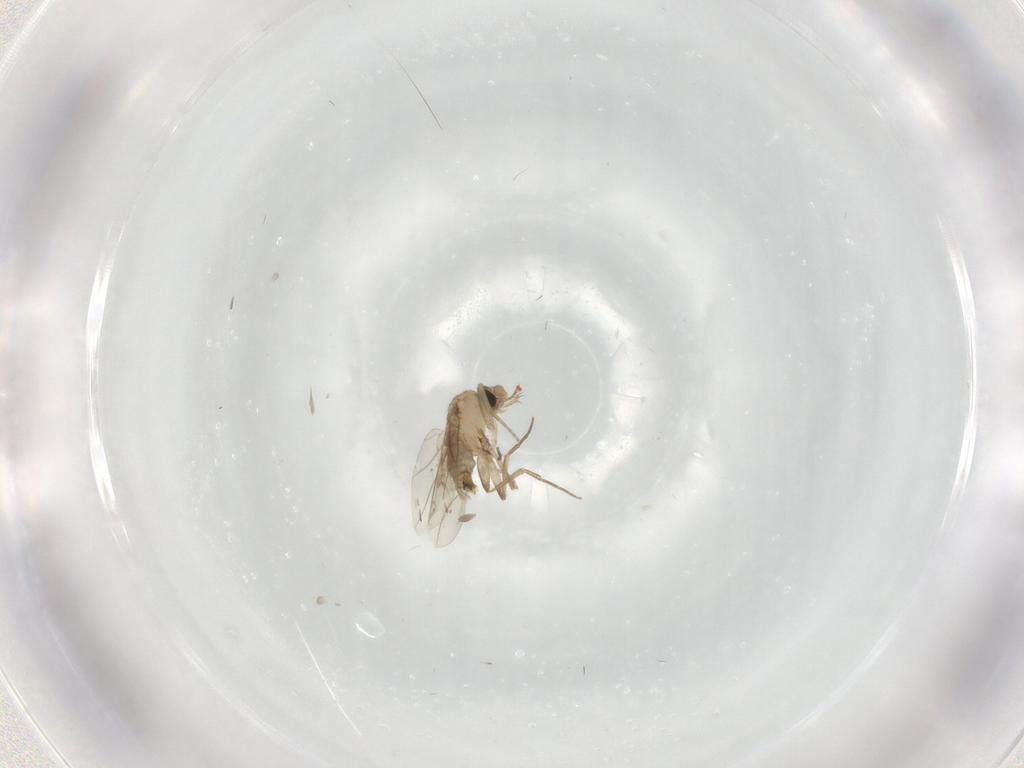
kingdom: Animalia
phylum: Arthropoda
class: Insecta
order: Diptera
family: Phoridae
